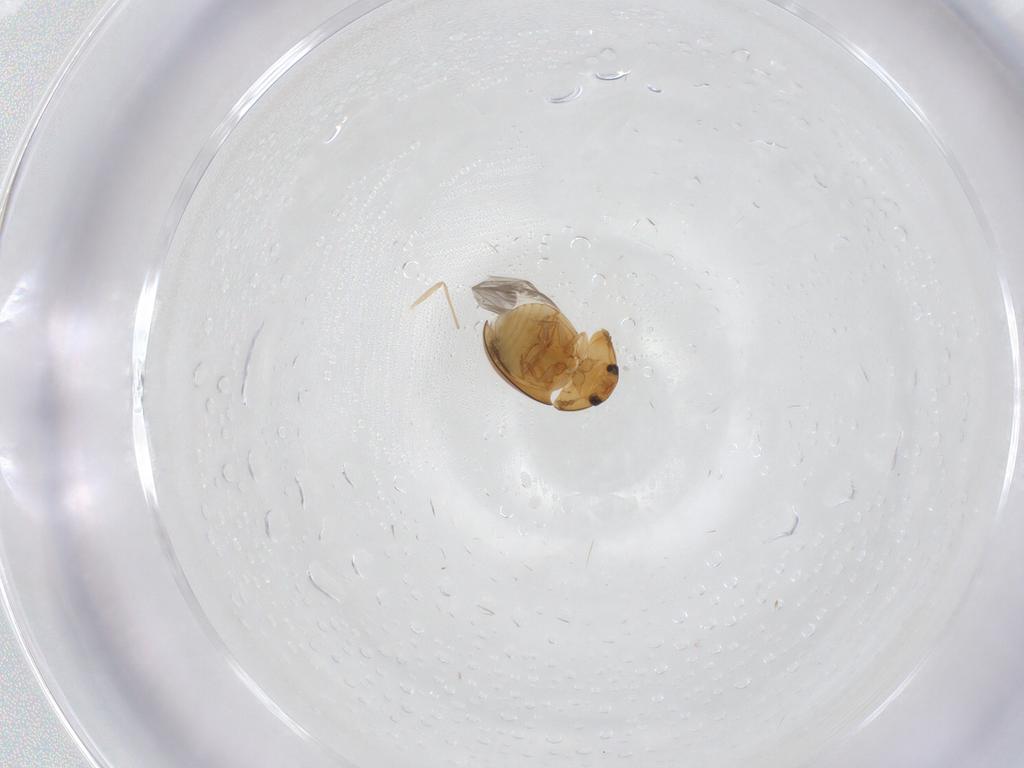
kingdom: Animalia
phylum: Arthropoda
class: Insecta
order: Coleoptera
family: Phalacridae
